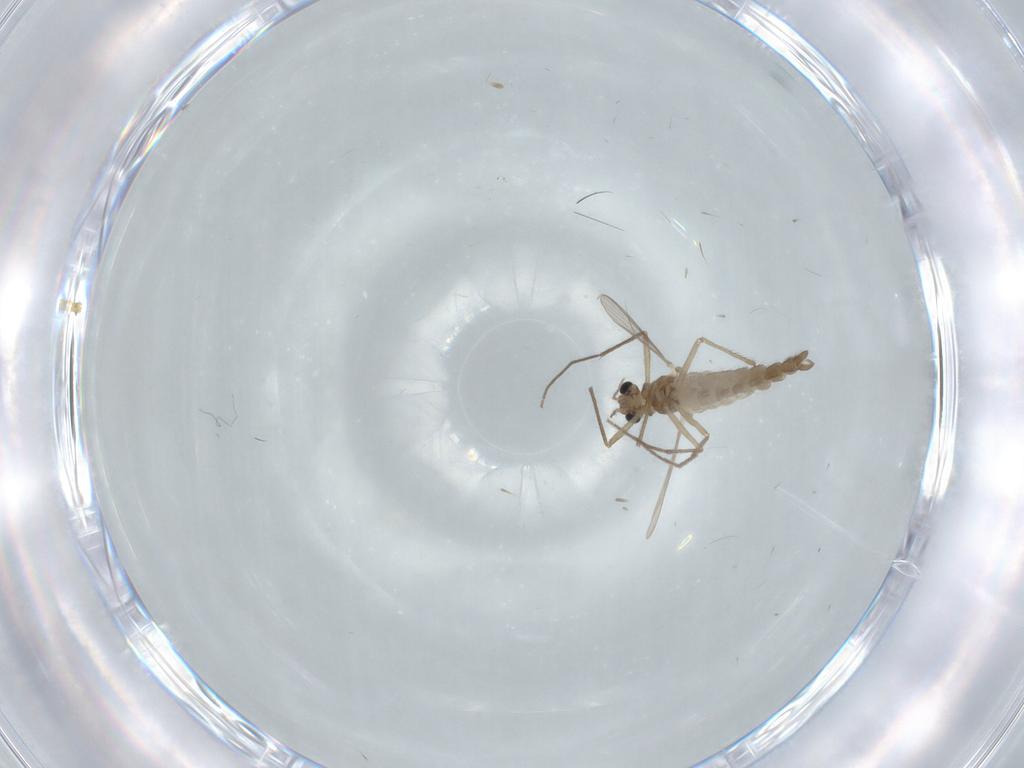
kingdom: Animalia
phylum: Arthropoda
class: Insecta
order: Diptera
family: Chironomidae
